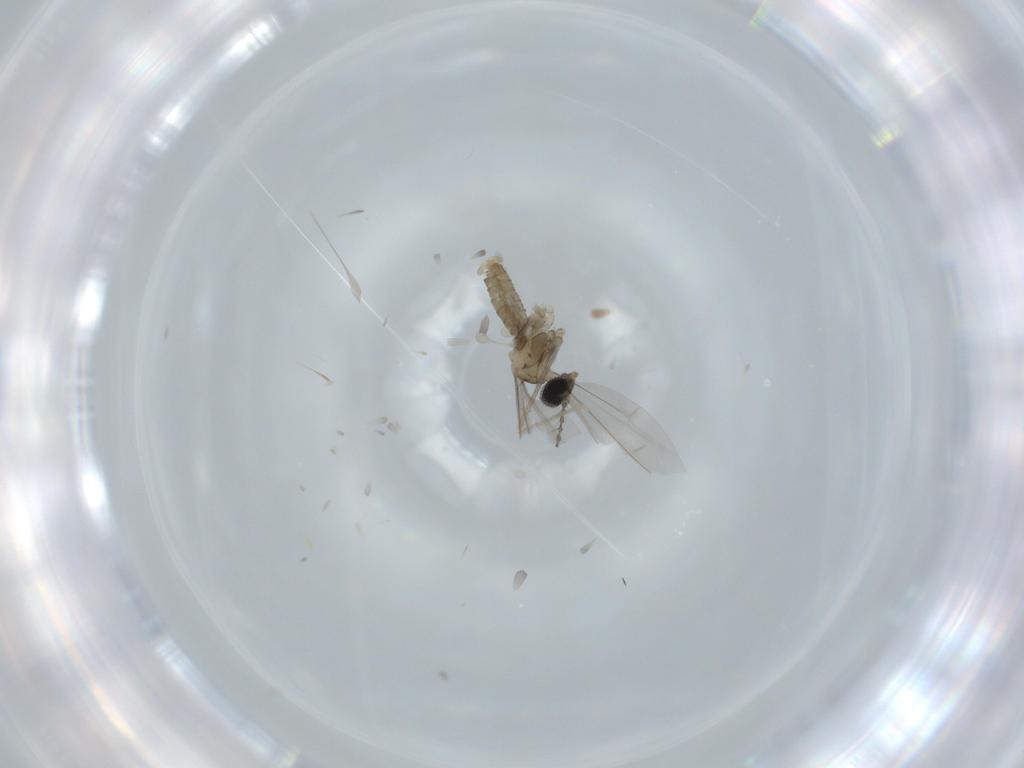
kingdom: Animalia
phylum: Arthropoda
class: Insecta
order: Diptera
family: Cecidomyiidae
